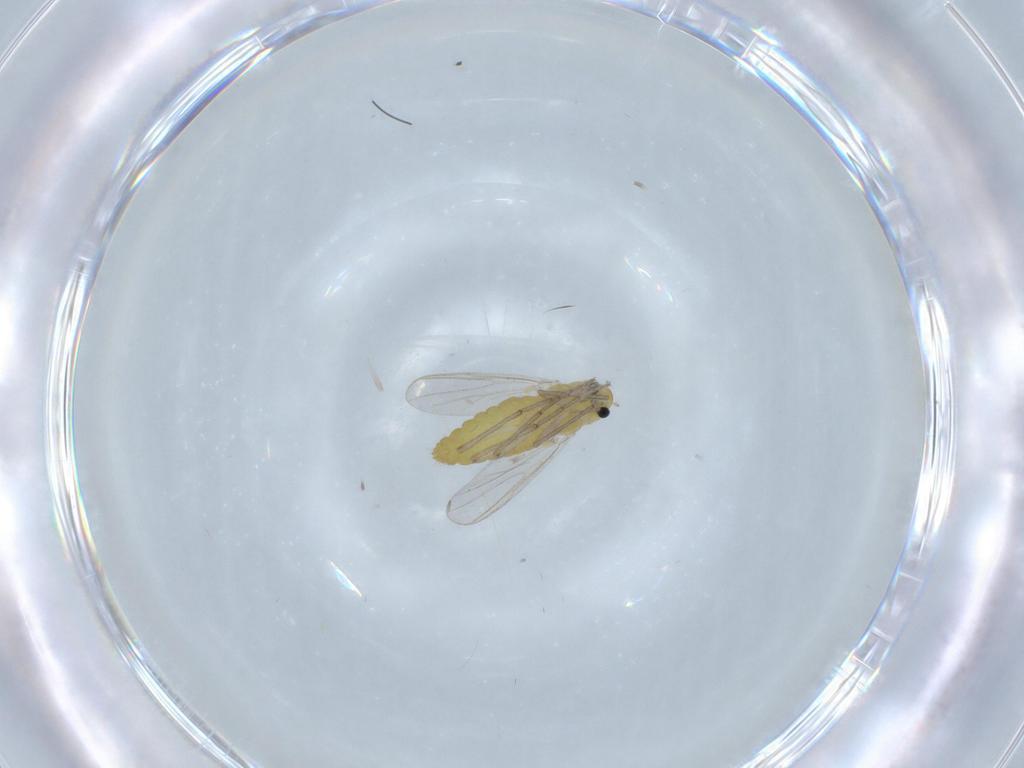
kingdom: Animalia
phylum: Arthropoda
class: Insecta
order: Diptera
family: Chironomidae
